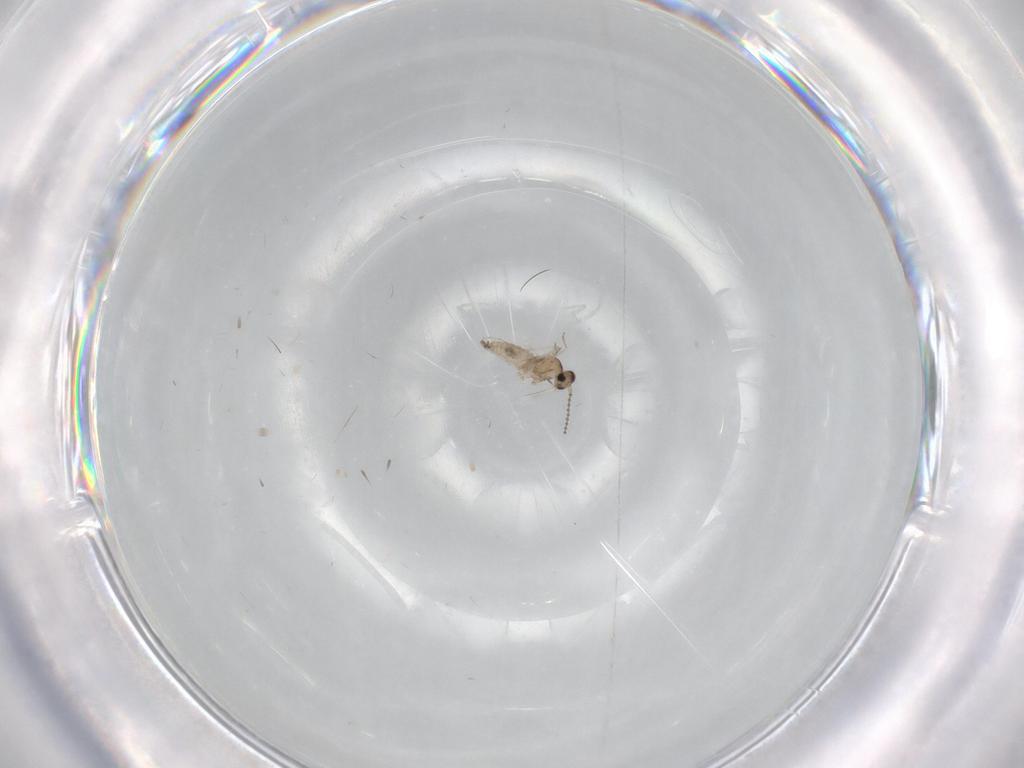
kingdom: Animalia
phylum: Arthropoda
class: Insecta
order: Diptera
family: Cecidomyiidae
